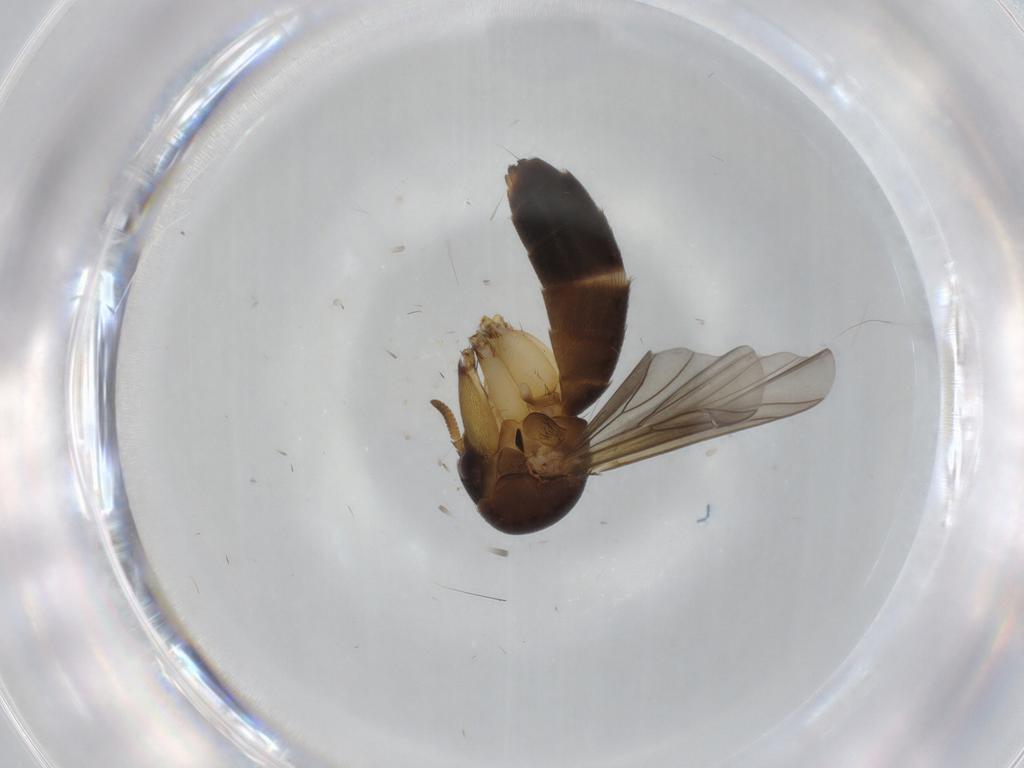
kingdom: Animalia
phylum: Arthropoda
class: Insecta
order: Diptera
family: Mycetophilidae
